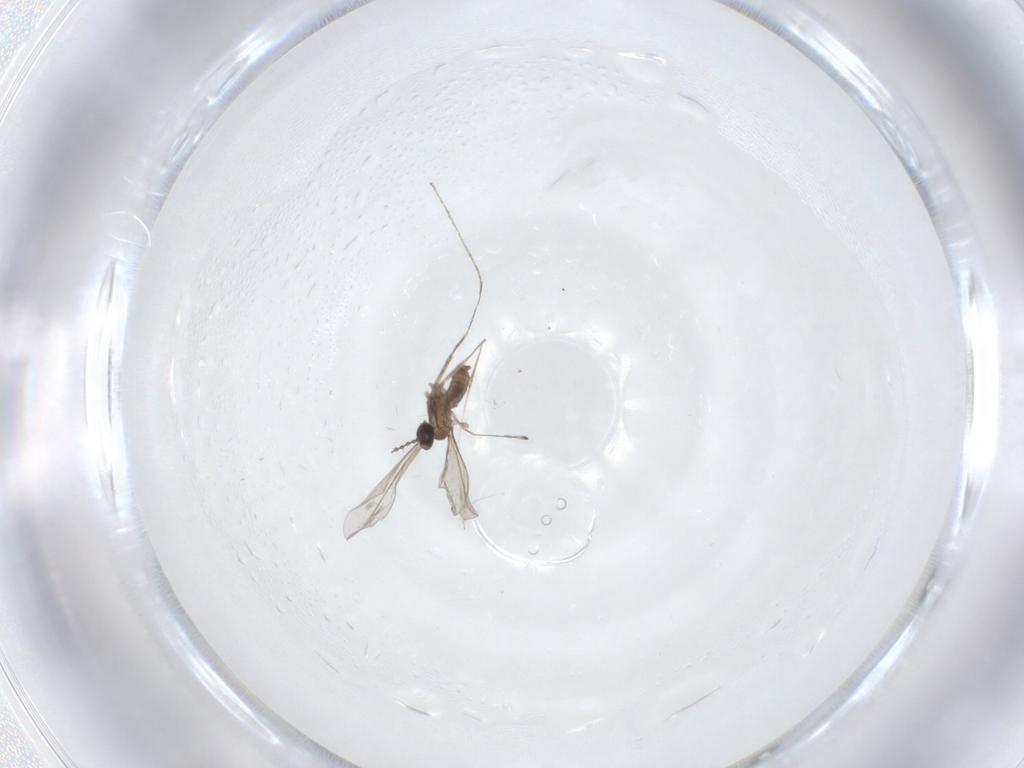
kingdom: Animalia
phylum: Arthropoda
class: Insecta
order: Diptera
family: Cecidomyiidae
